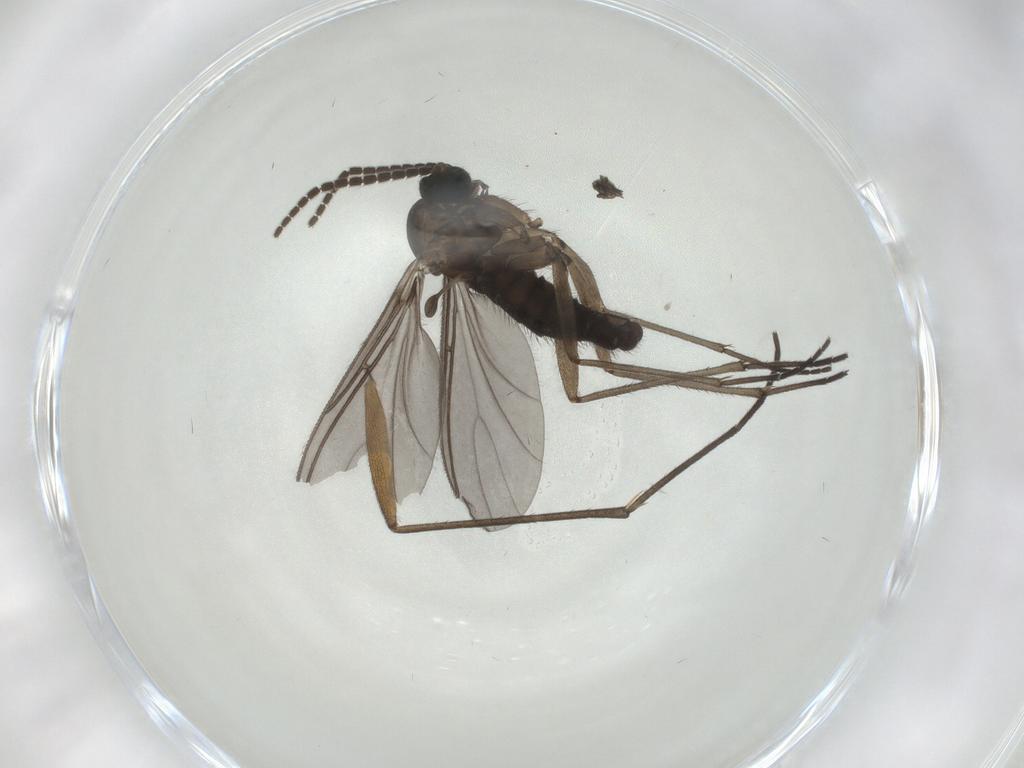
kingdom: Animalia
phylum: Arthropoda
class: Insecta
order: Diptera
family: Sciaridae
